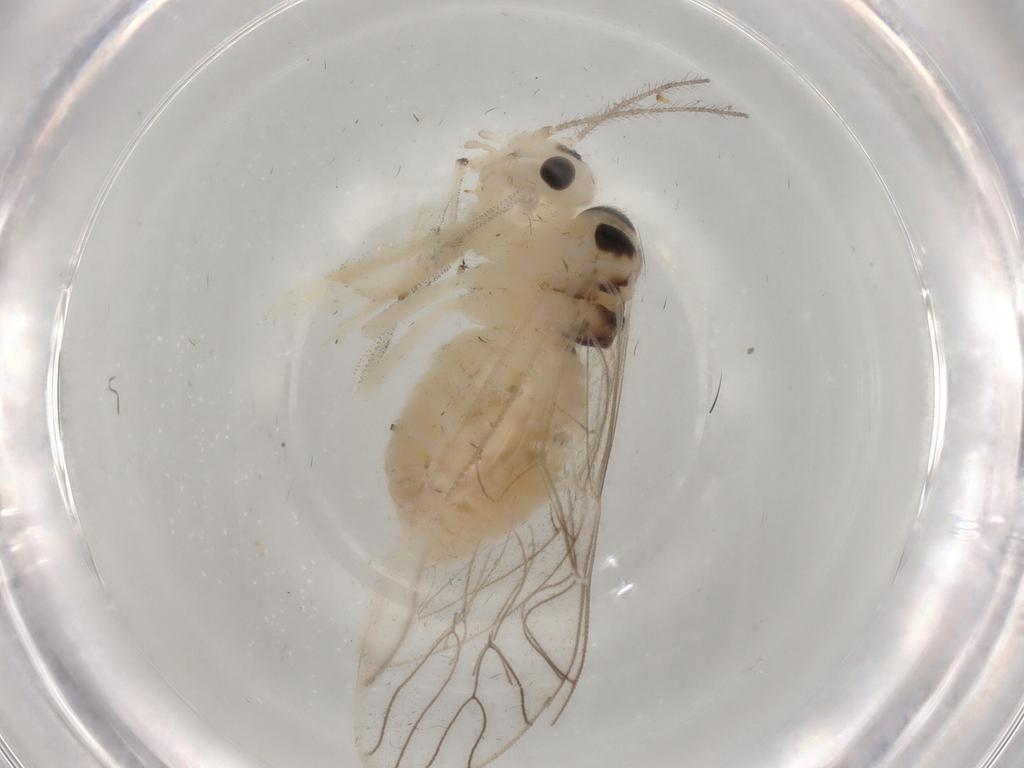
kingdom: Animalia
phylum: Arthropoda
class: Insecta
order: Psocodea
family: Amphipsocidae
